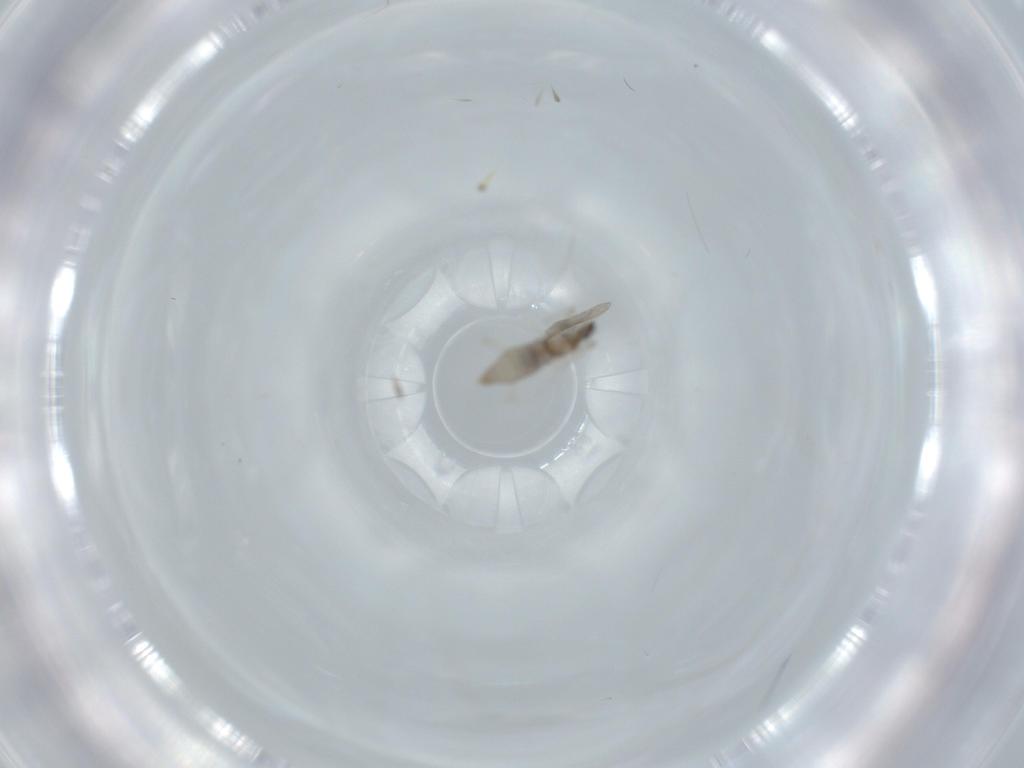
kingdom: Animalia
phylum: Arthropoda
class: Insecta
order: Diptera
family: Cecidomyiidae
